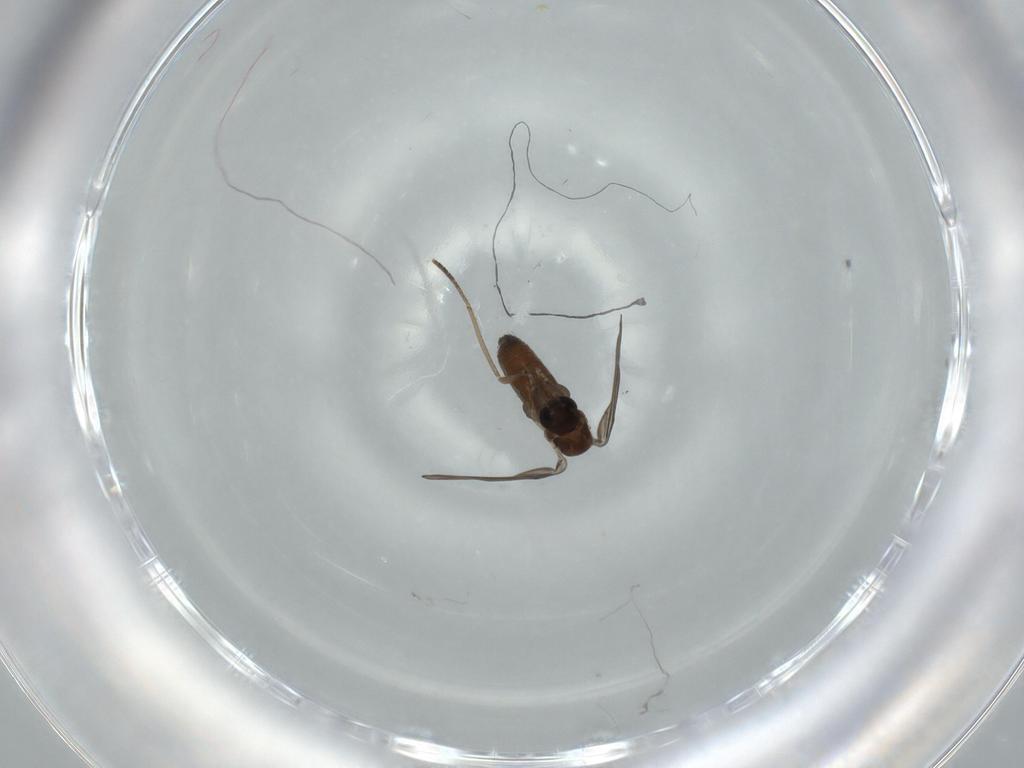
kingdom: Animalia
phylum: Arthropoda
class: Insecta
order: Diptera
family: Psychodidae
